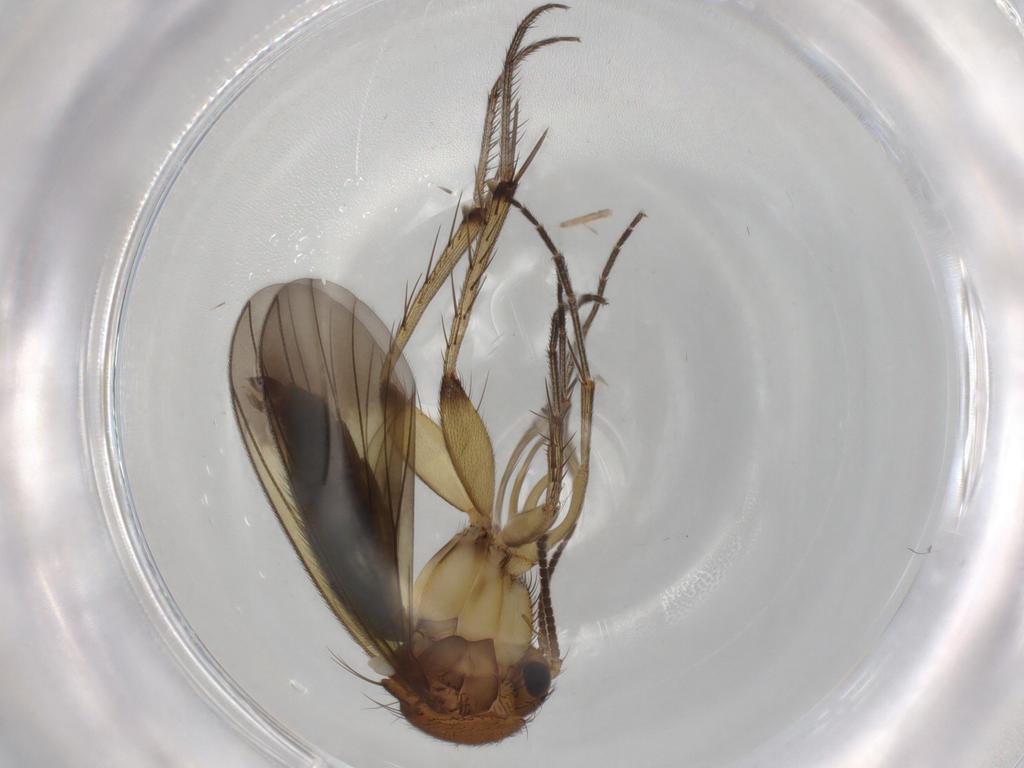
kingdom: Animalia
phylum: Arthropoda
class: Insecta
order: Diptera
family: Mycetophilidae
